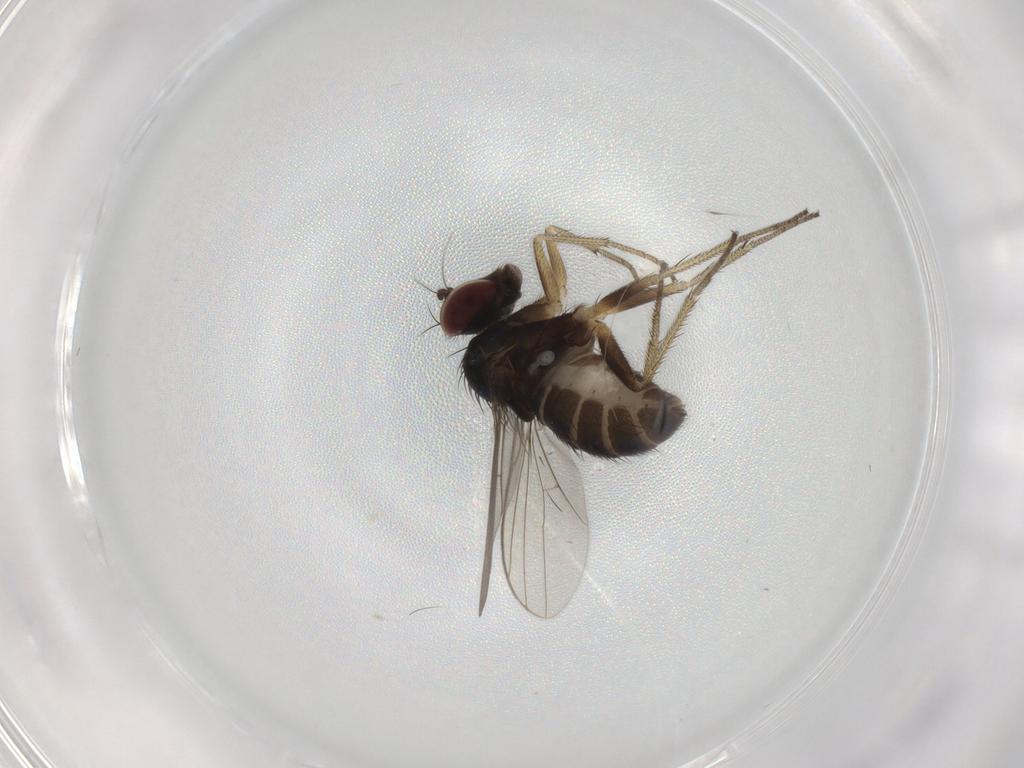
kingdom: Animalia
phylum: Arthropoda
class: Insecta
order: Diptera
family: Dolichopodidae
